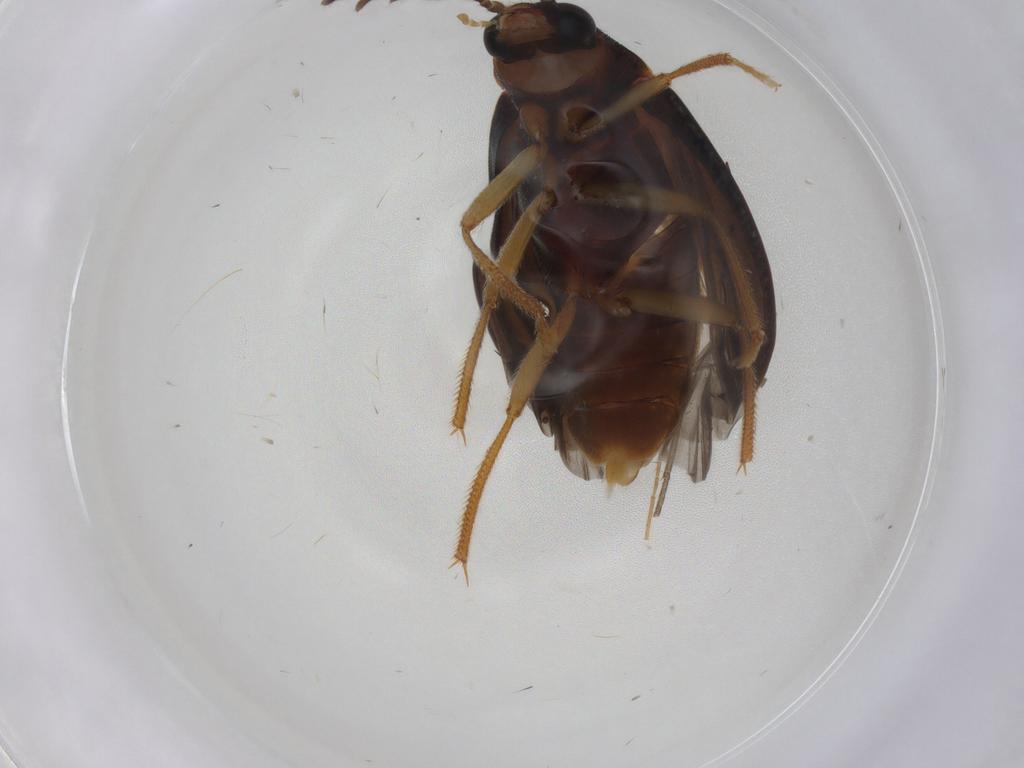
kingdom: Animalia
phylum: Arthropoda
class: Insecta
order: Coleoptera
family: Ptilodactylidae
